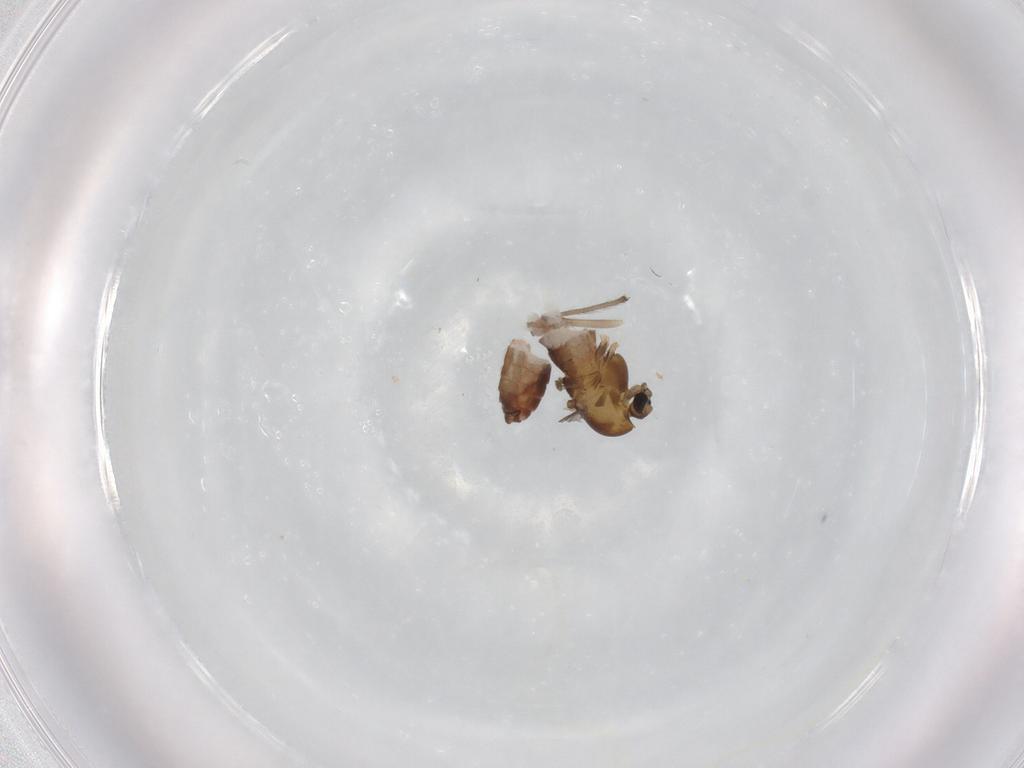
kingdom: Animalia
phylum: Arthropoda
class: Insecta
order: Diptera
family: Chironomidae
